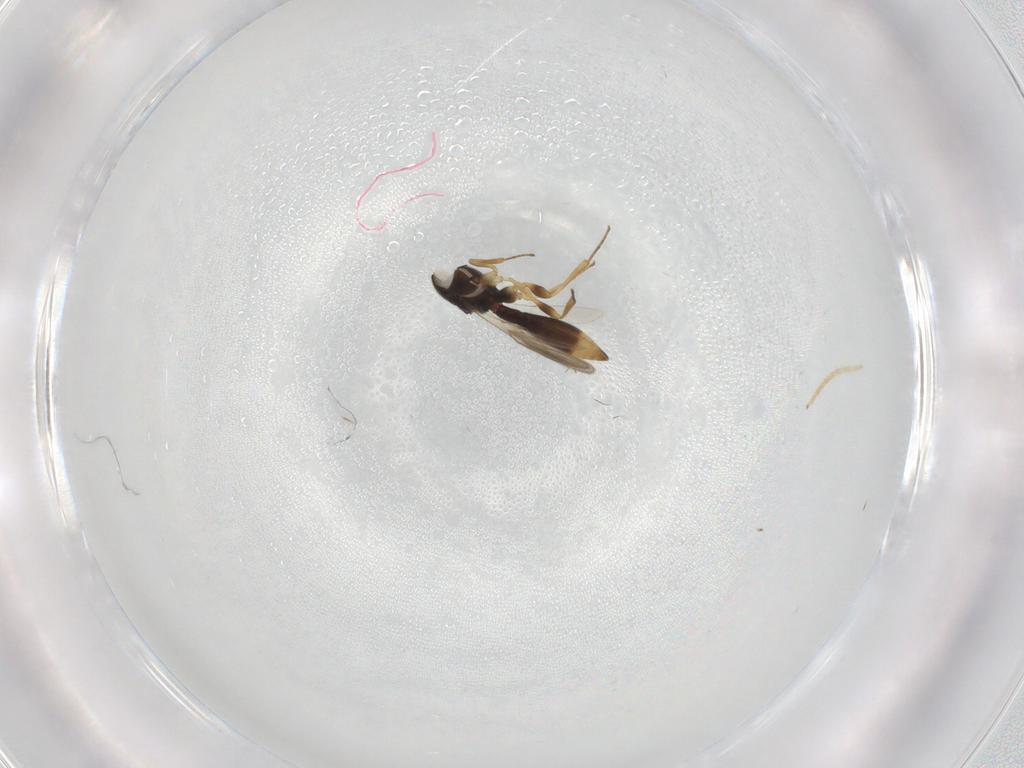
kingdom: Animalia
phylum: Arthropoda
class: Insecta
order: Hymenoptera
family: Scelionidae
